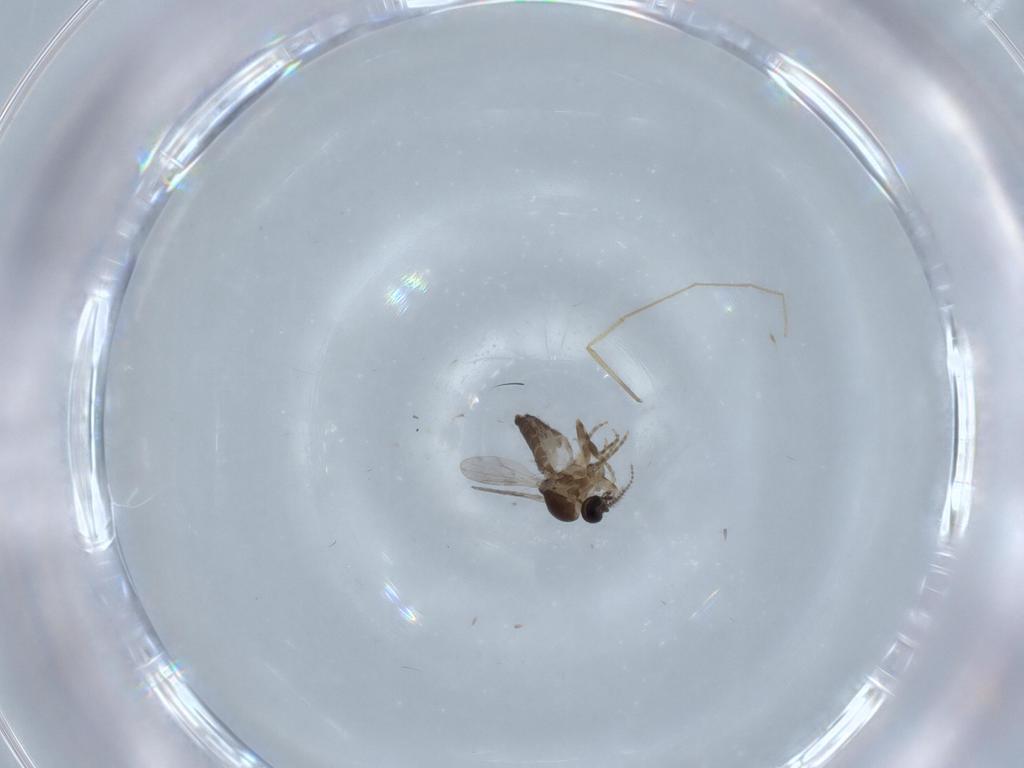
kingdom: Animalia
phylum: Arthropoda
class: Insecta
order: Diptera
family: Ceratopogonidae
